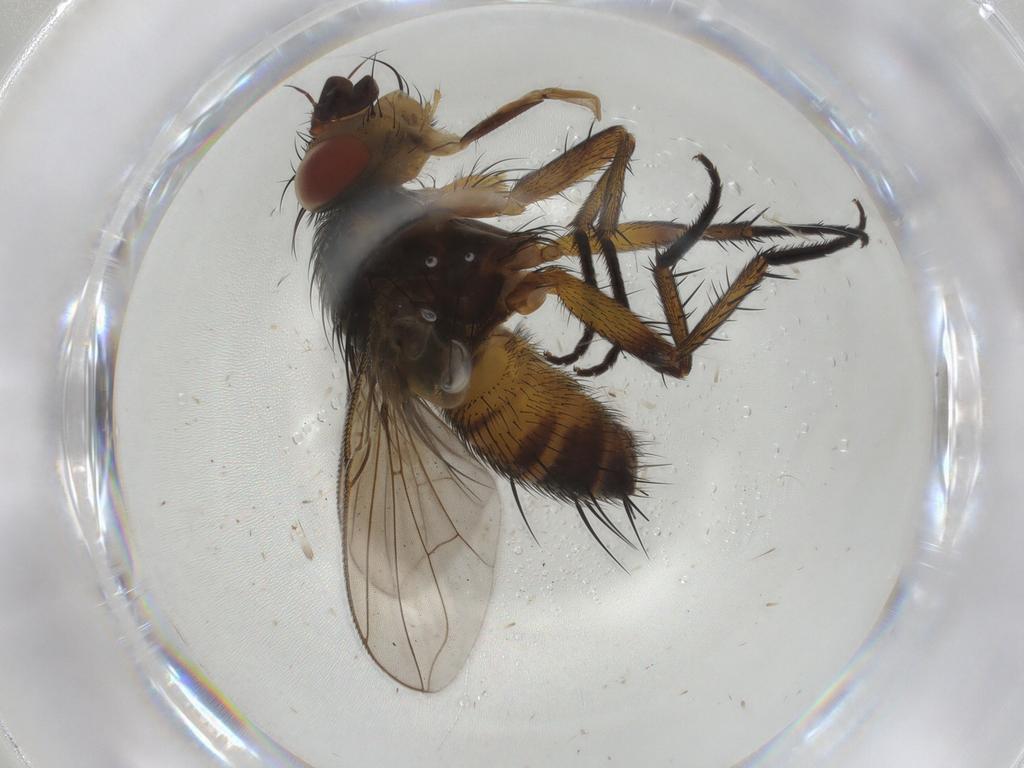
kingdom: Animalia
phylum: Arthropoda
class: Insecta
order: Diptera
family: Tachinidae
